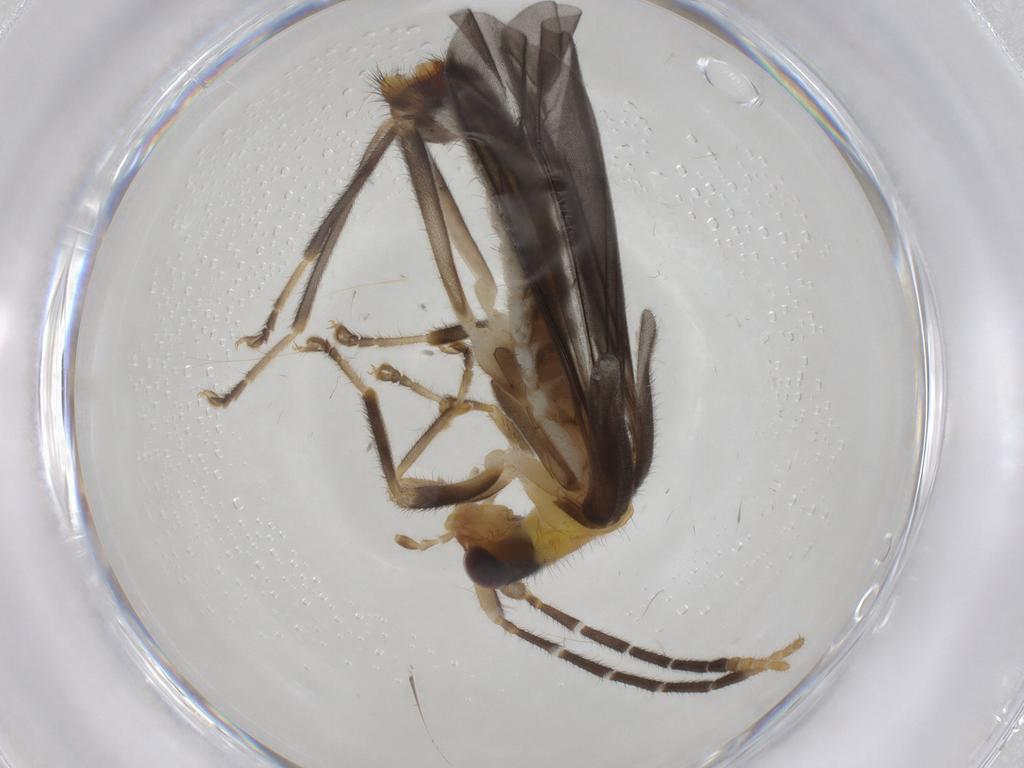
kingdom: Animalia
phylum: Arthropoda
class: Insecta
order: Coleoptera
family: Cantharidae
